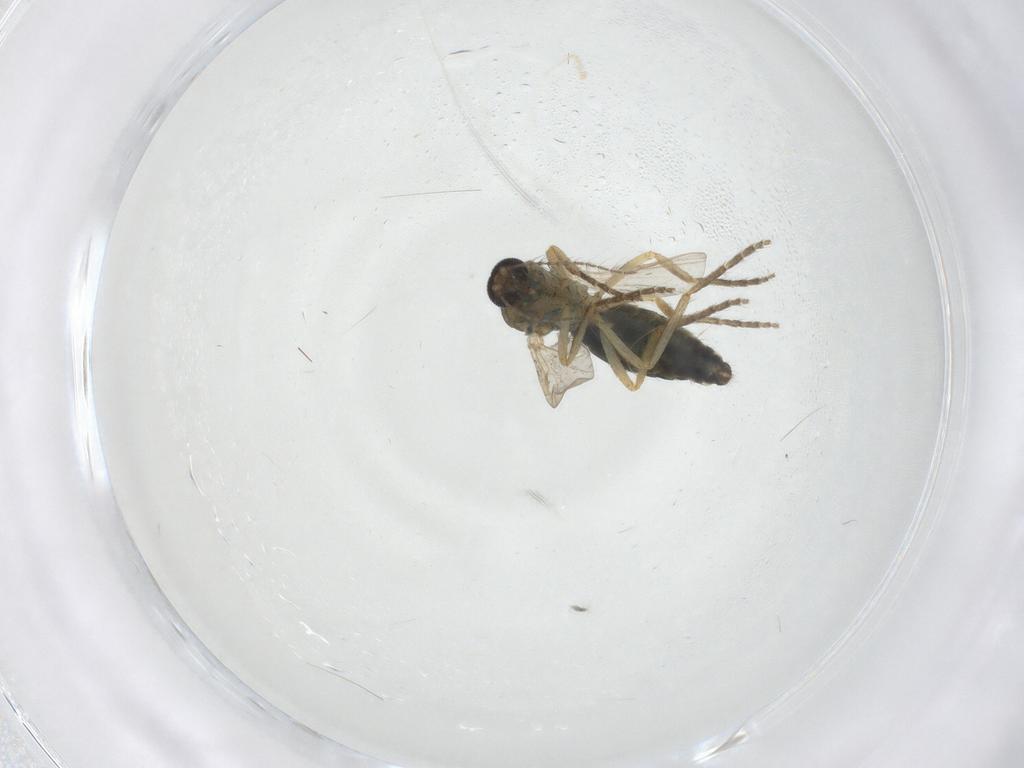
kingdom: Animalia
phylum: Arthropoda
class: Insecta
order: Diptera
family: Ceratopogonidae
